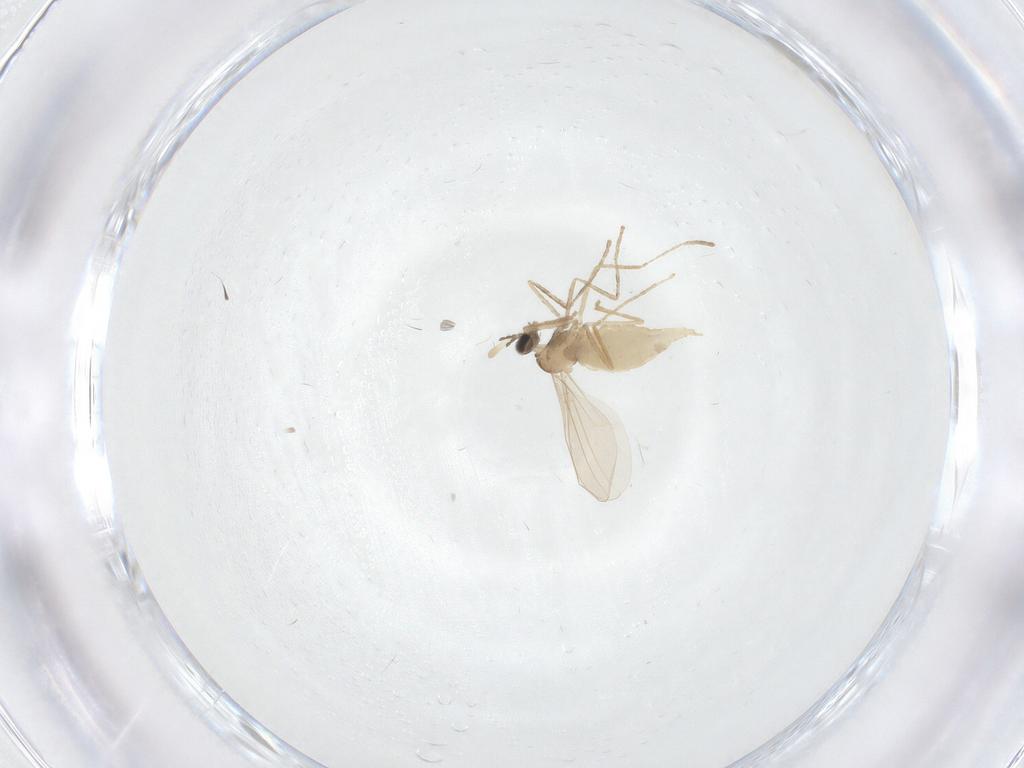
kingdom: Animalia
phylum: Arthropoda
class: Insecta
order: Diptera
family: Cecidomyiidae
